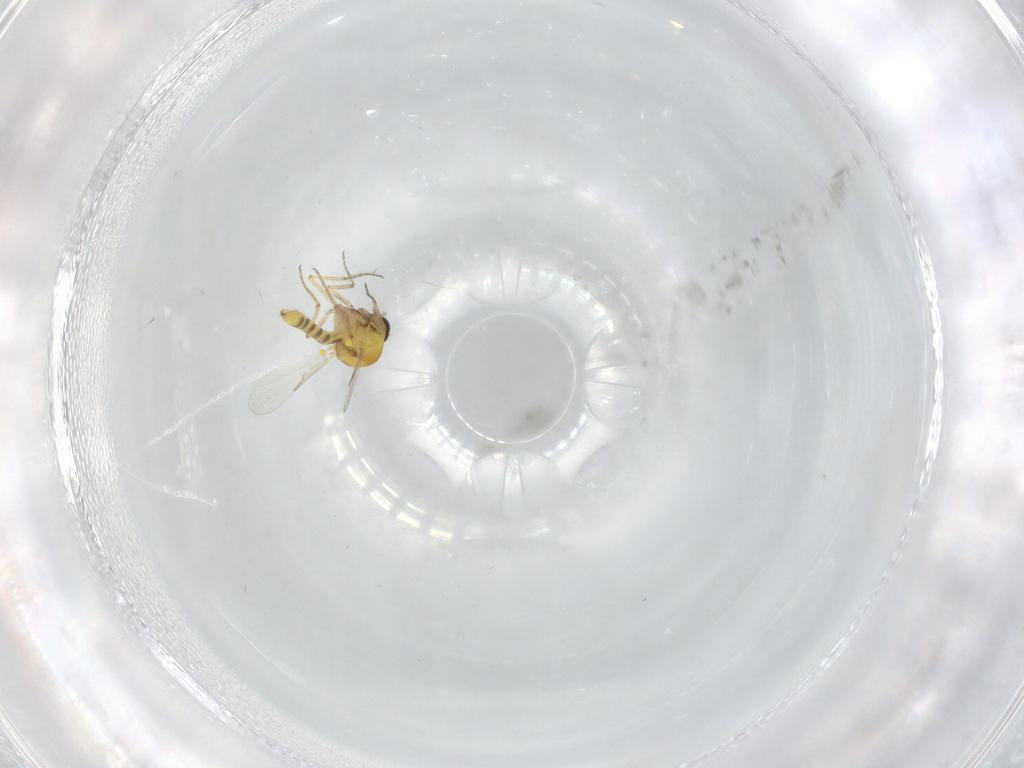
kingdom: Animalia
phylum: Arthropoda
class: Insecta
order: Diptera
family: Ceratopogonidae
